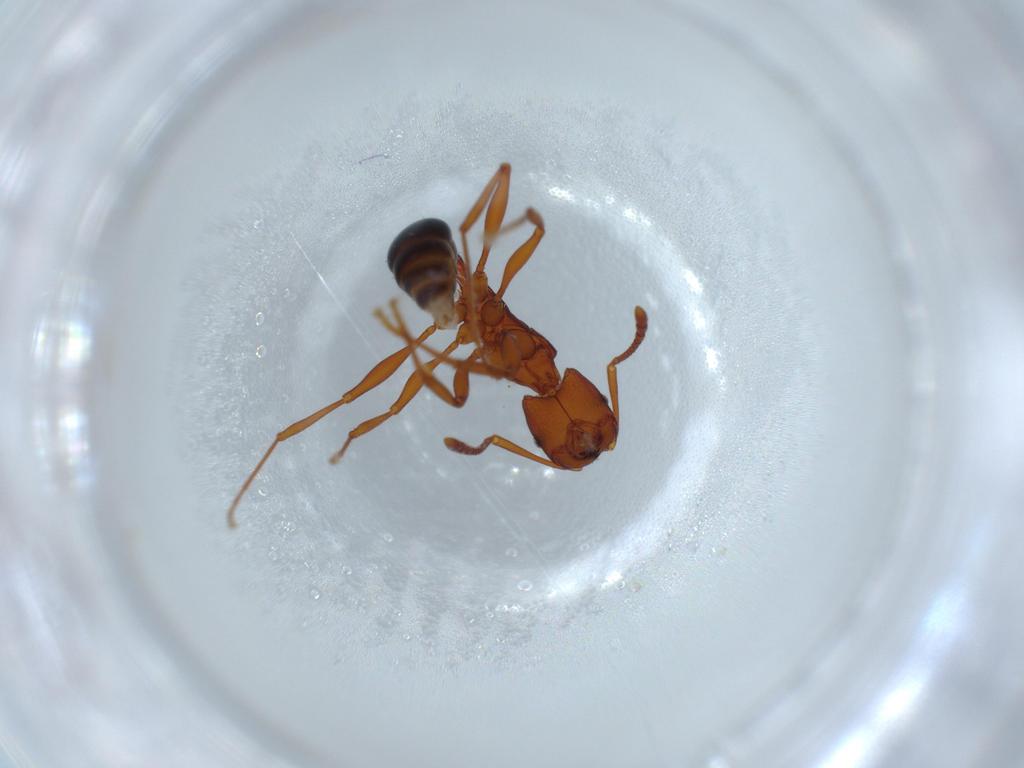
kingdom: Animalia
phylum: Arthropoda
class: Insecta
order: Hymenoptera
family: Formicidae
